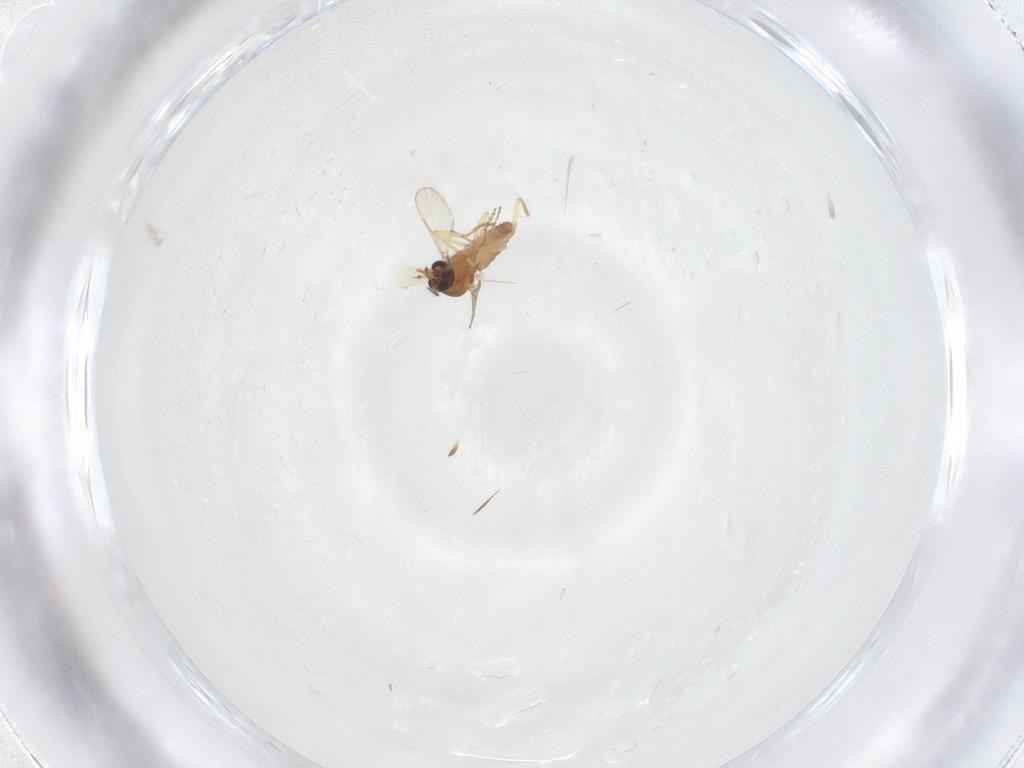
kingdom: Animalia
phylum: Arthropoda
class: Insecta
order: Diptera
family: Ceratopogonidae
